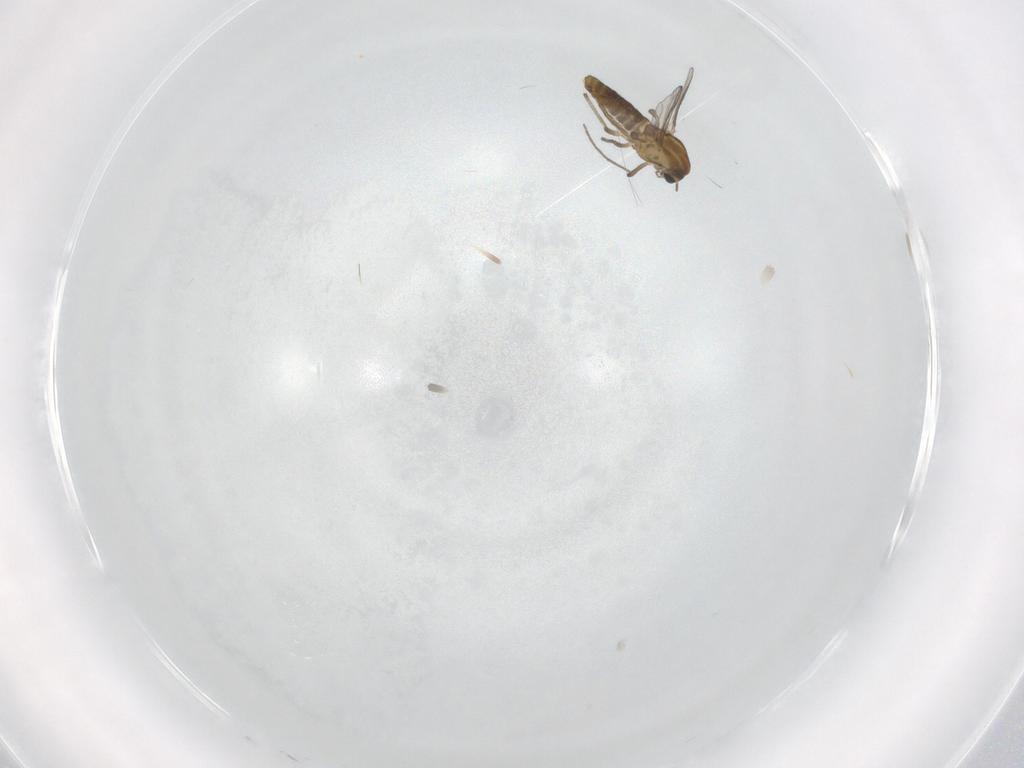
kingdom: Animalia
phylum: Arthropoda
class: Insecta
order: Diptera
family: Chironomidae
